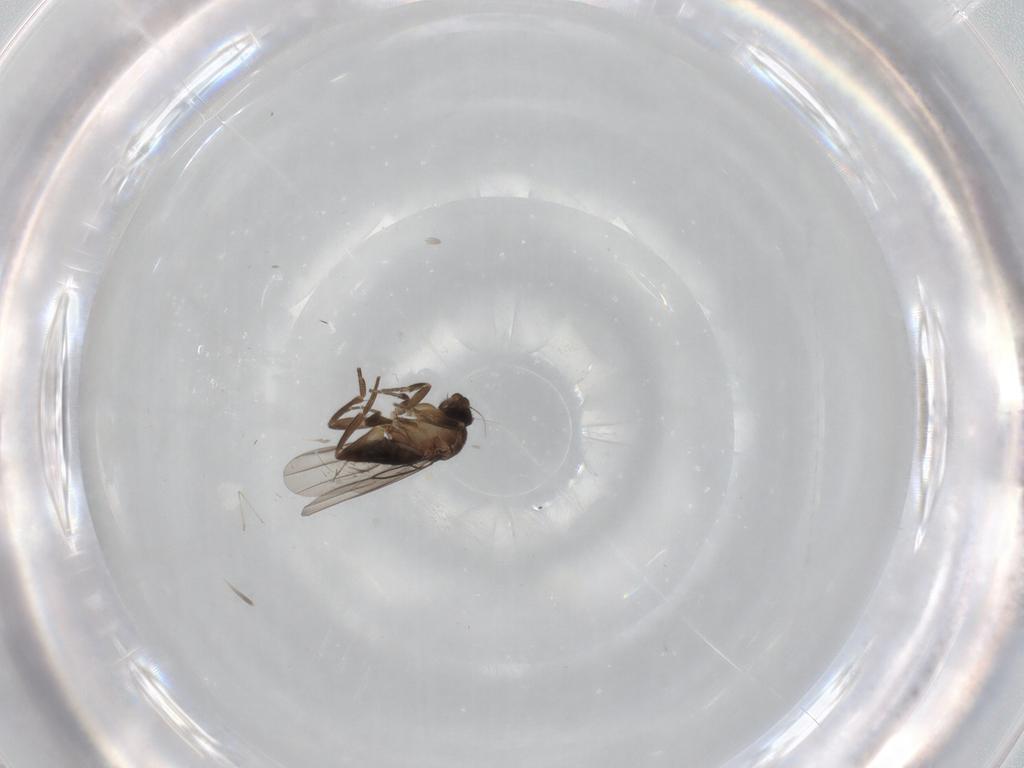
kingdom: Animalia
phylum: Arthropoda
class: Insecta
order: Diptera
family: Cecidomyiidae
